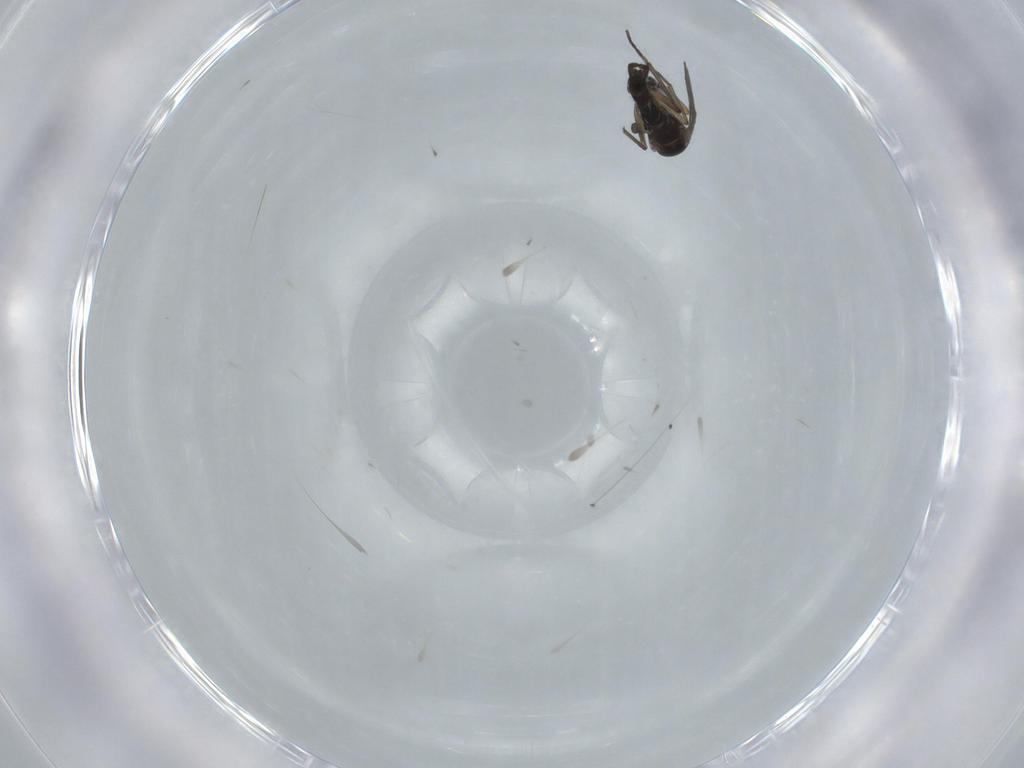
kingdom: Animalia
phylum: Arthropoda
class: Insecta
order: Diptera
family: Sciaridae
